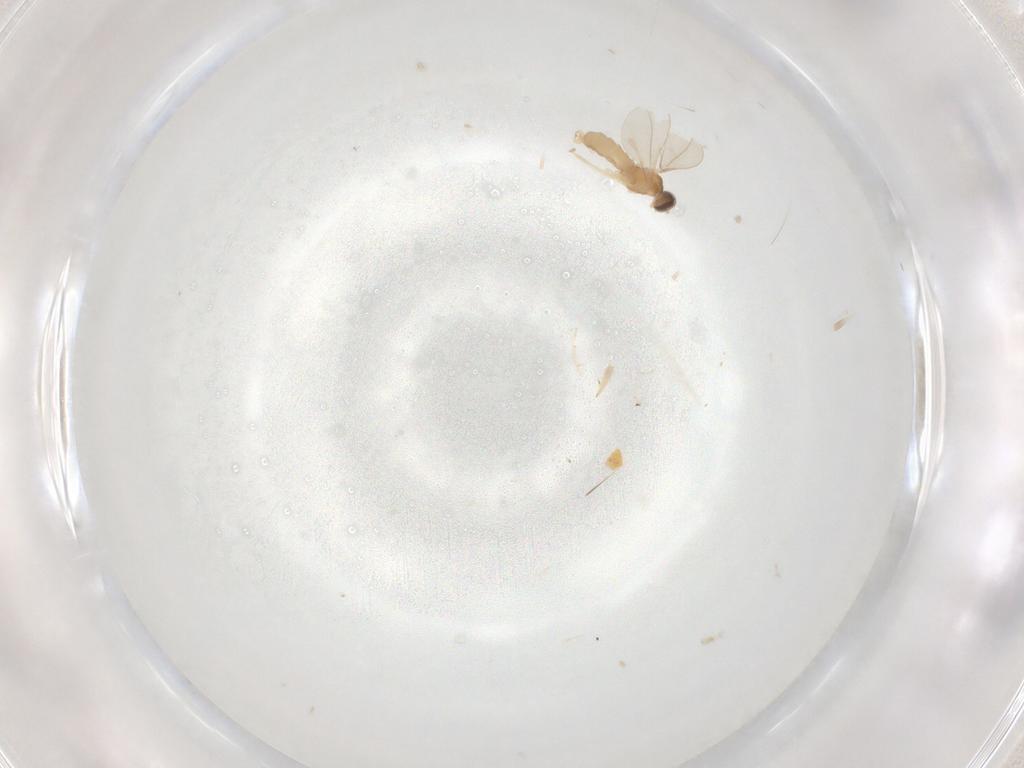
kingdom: Animalia
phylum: Arthropoda
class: Insecta
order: Diptera
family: Cecidomyiidae
